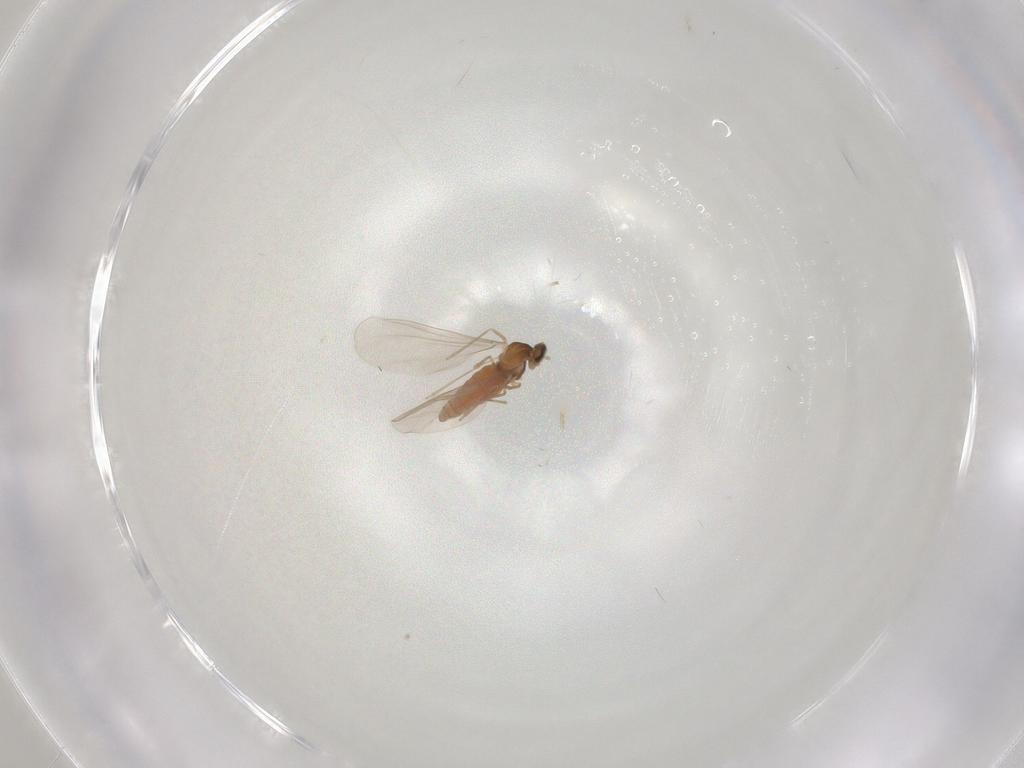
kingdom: Animalia
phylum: Arthropoda
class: Insecta
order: Diptera
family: Cecidomyiidae
